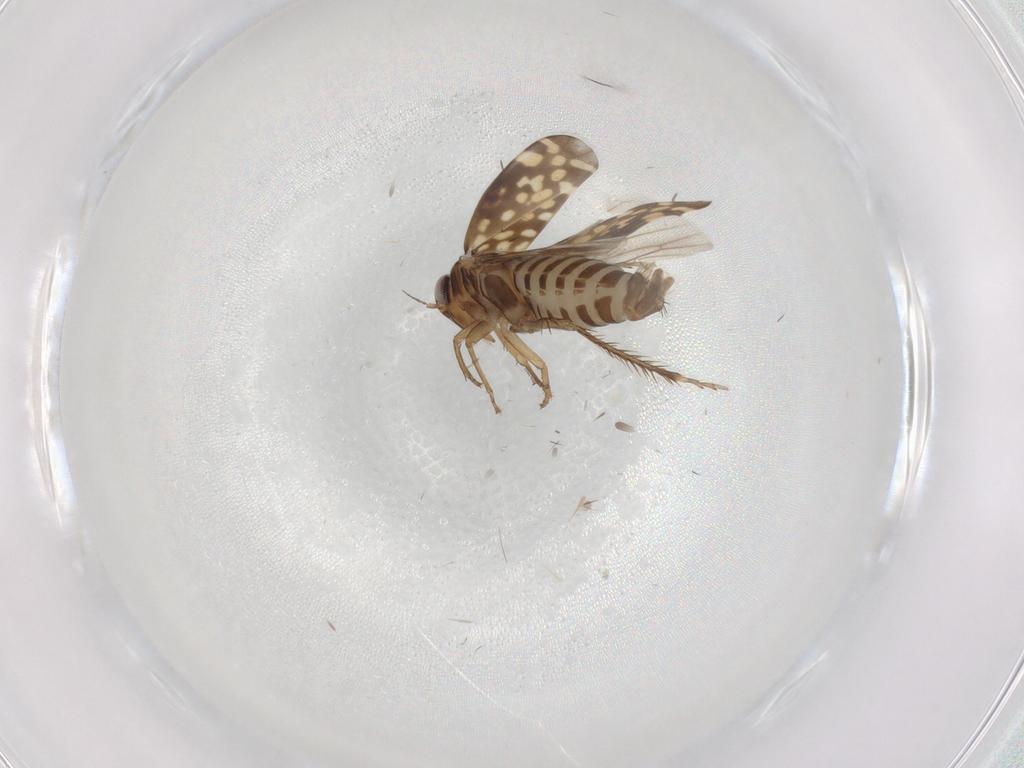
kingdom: Animalia
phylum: Arthropoda
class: Insecta
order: Hemiptera
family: Cicadellidae
